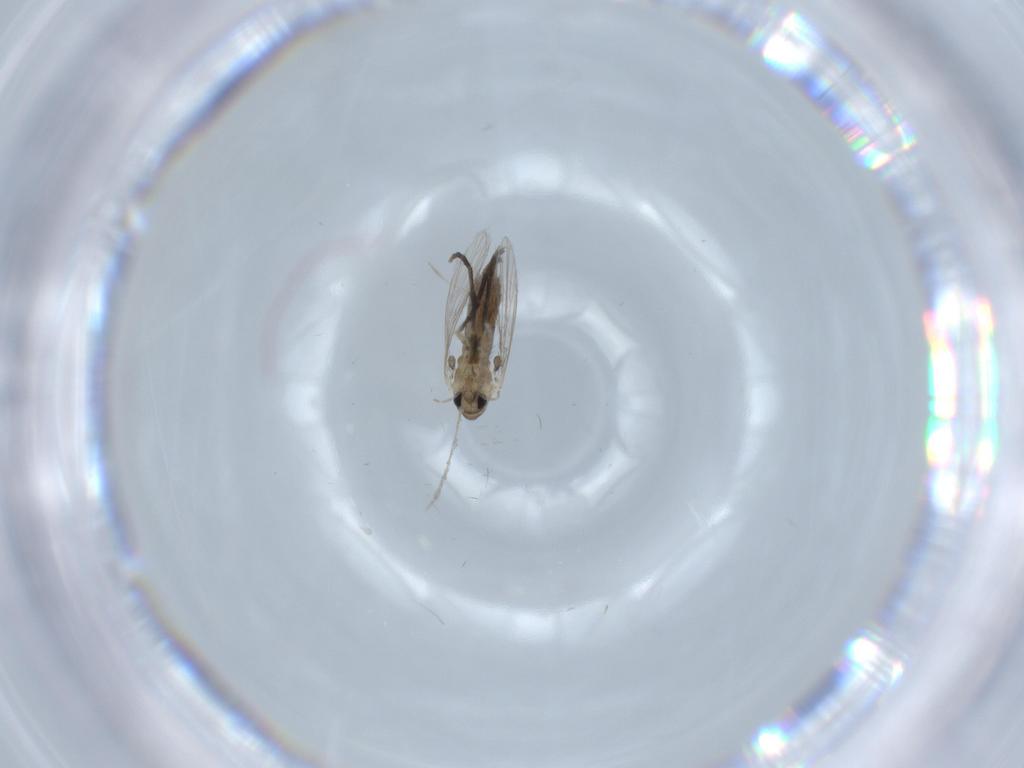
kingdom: Animalia
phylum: Arthropoda
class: Insecta
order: Diptera
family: Psychodidae
